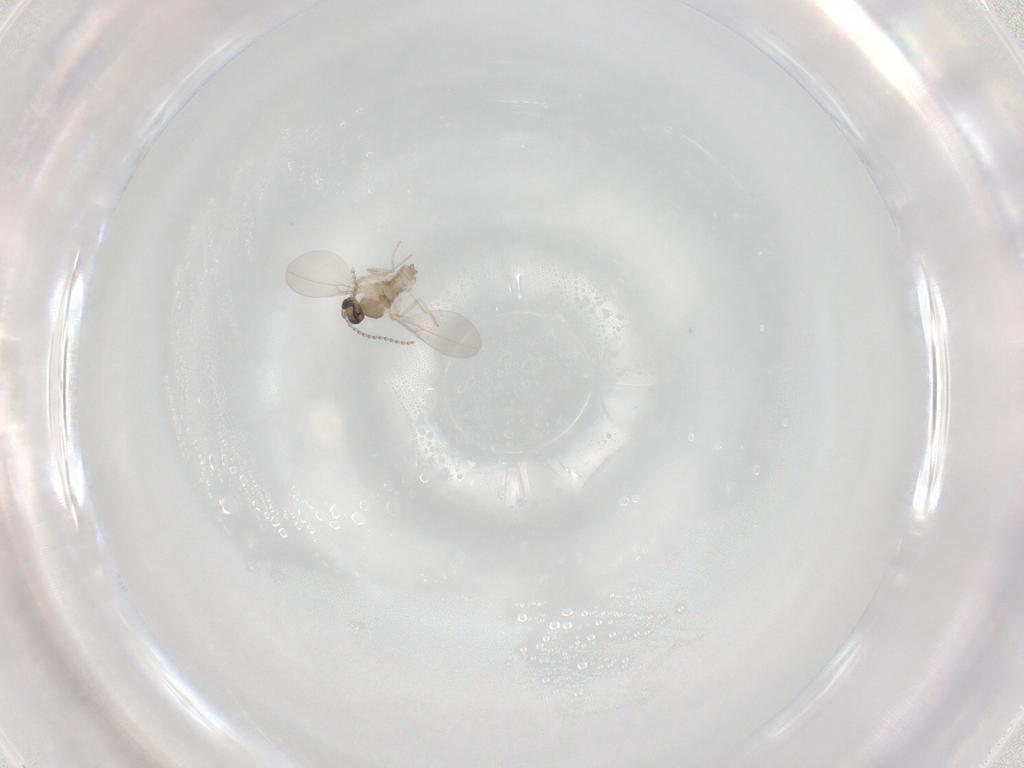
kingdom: Animalia
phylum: Arthropoda
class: Insecta
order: Diptera
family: Cecidomyiidae
